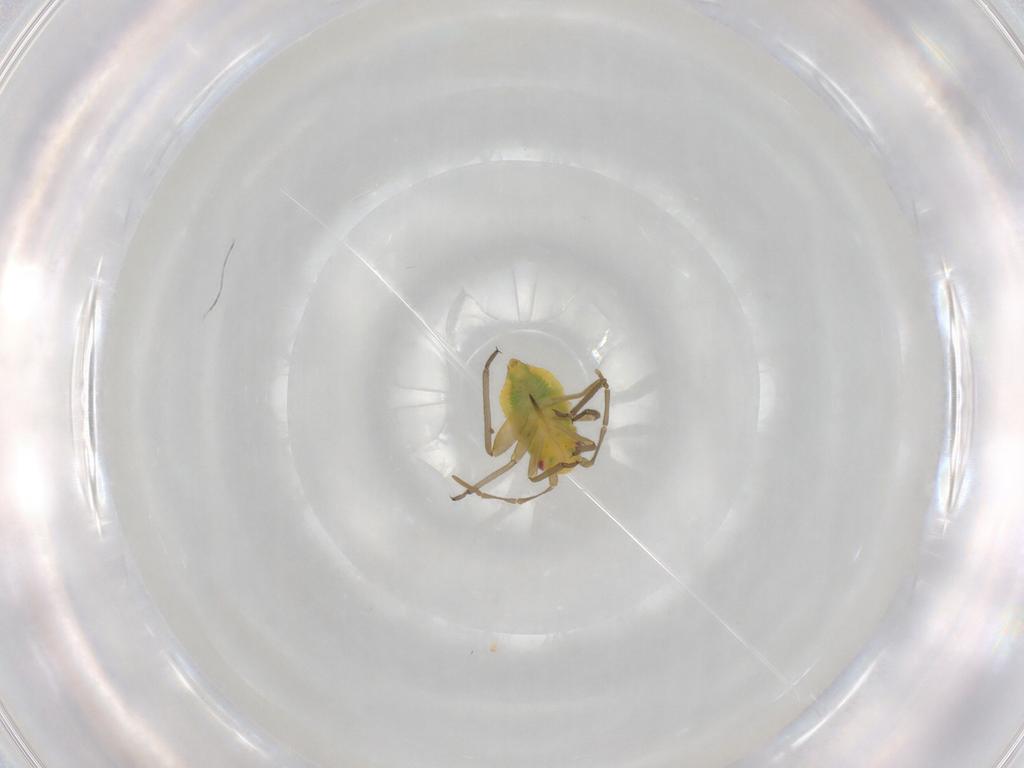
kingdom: Animalia
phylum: Arthropoda
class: Insecta
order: Hemiptera
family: Miridae
